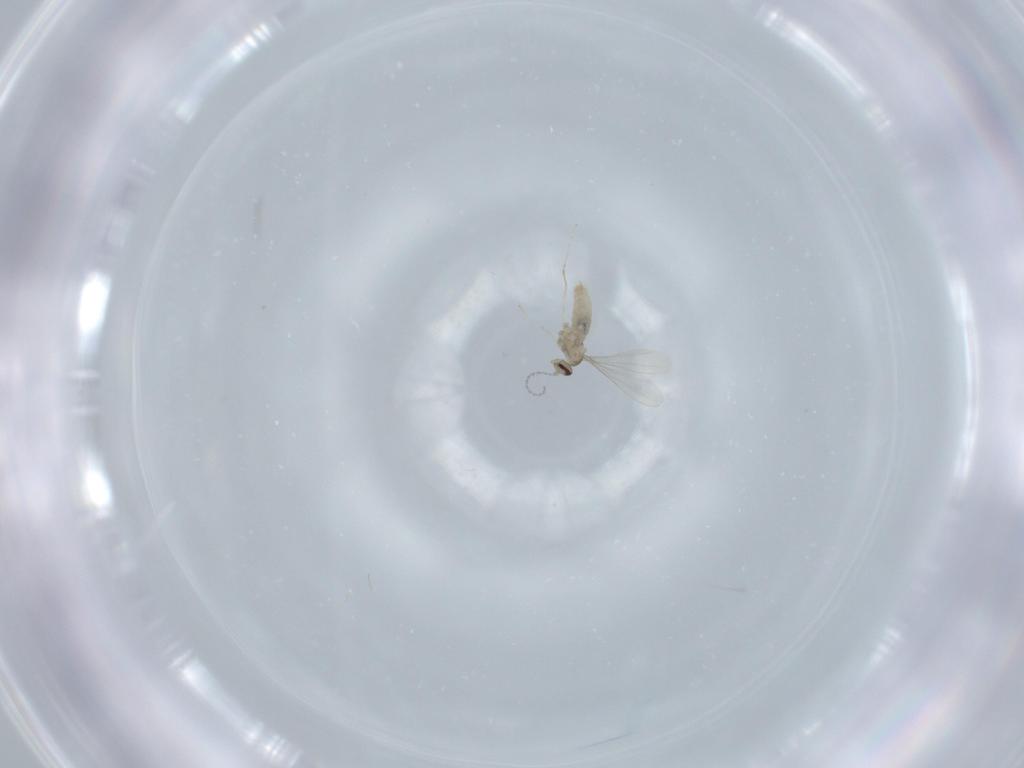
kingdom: Animalia
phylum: Arthropoda
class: Insecta
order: Diptera
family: Cecidomyiidae
